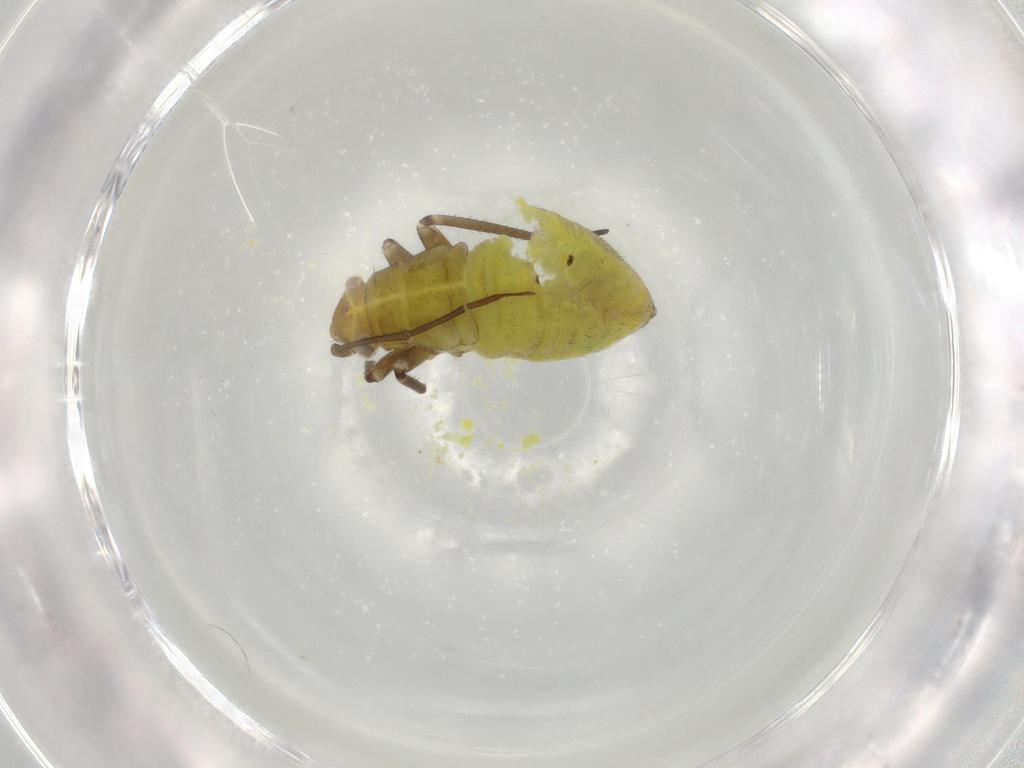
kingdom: Animalia
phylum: Arthropoda
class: Insecta
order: Hemiptera
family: Miridae
